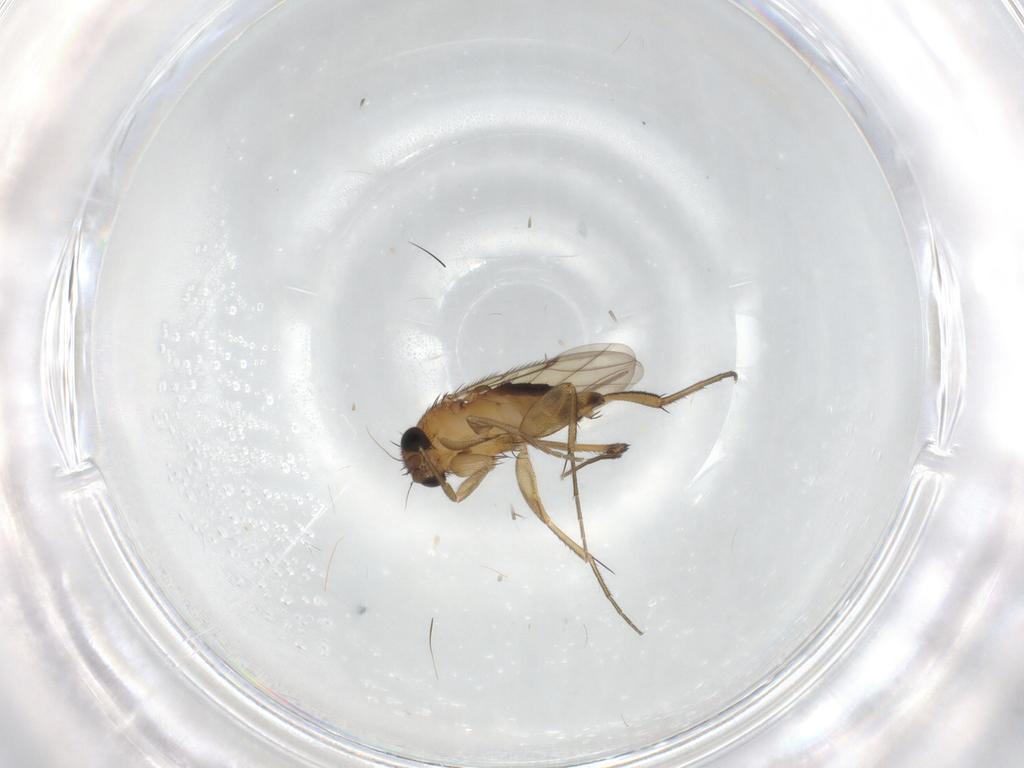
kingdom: Animalia
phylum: Arthropoda
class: Insecta
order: Diptera
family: Phoridae
